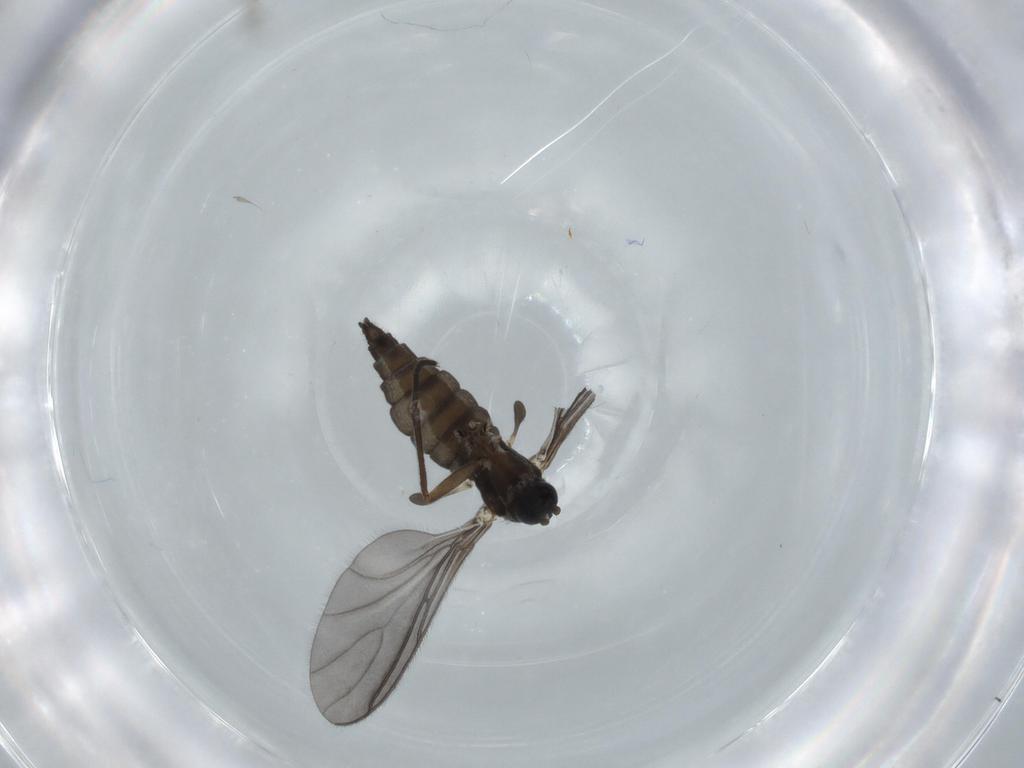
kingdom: Animalia
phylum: Arthropoda
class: Insecta
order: Diptera
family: Sciaridae
